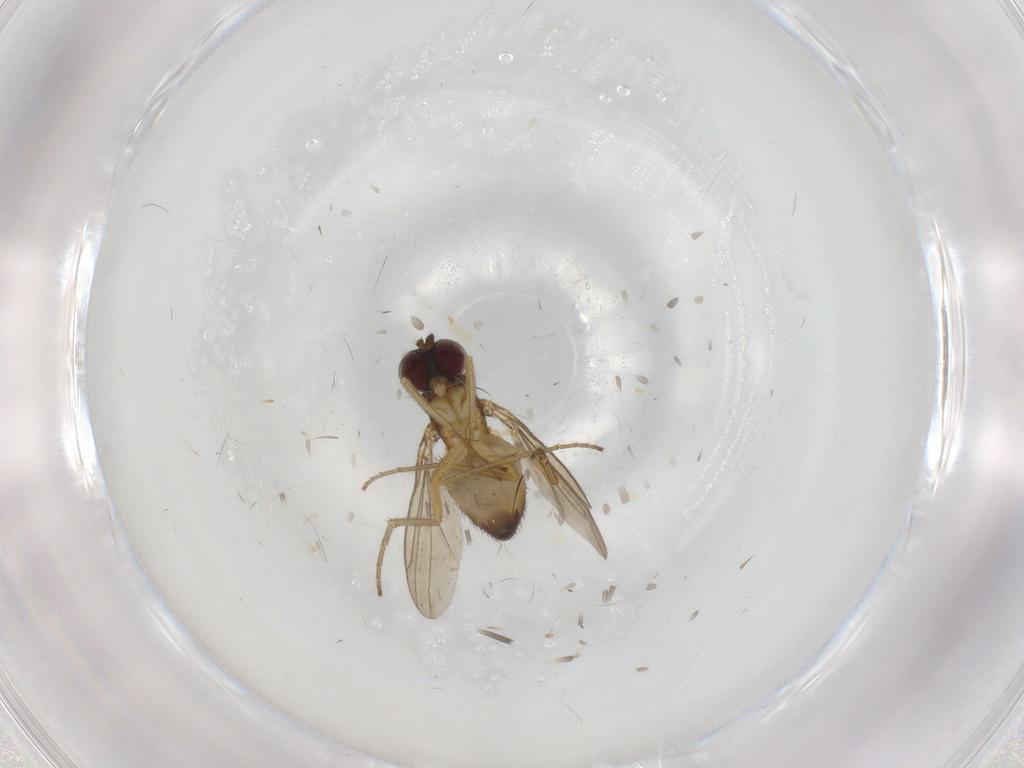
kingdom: Animalia
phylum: Arthropoda
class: Insecta
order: Diptera
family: Dolichopodidae
